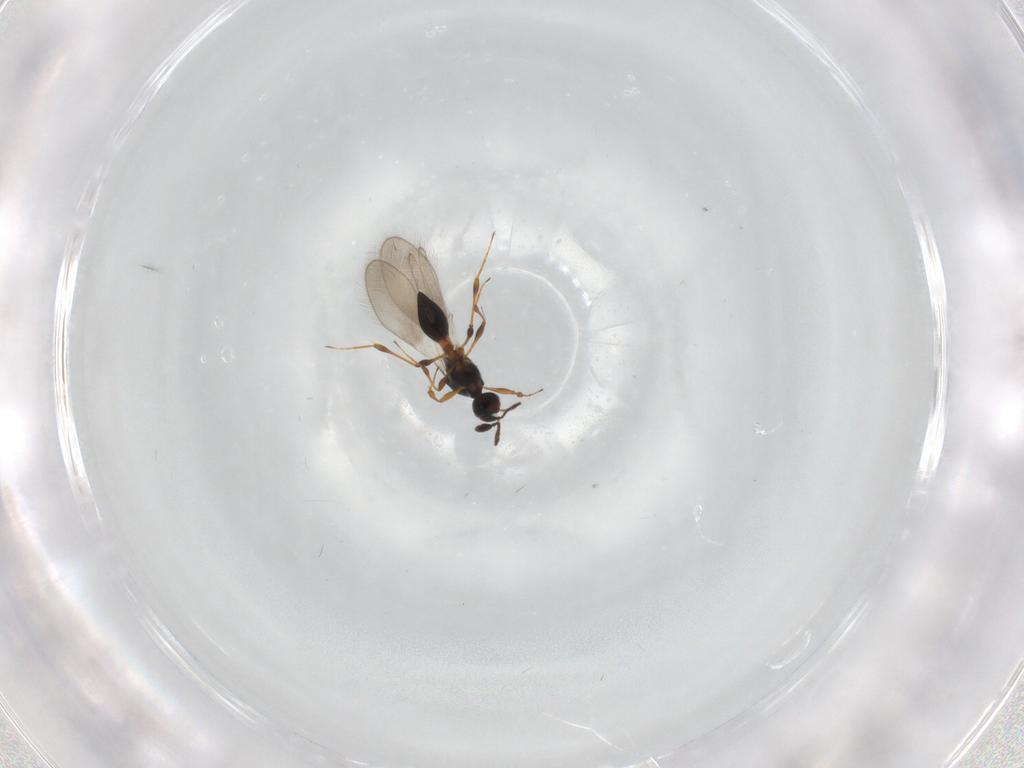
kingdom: Animalia
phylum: Arthropoda
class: Insecta
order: Hymenoptera
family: Platygastridae
